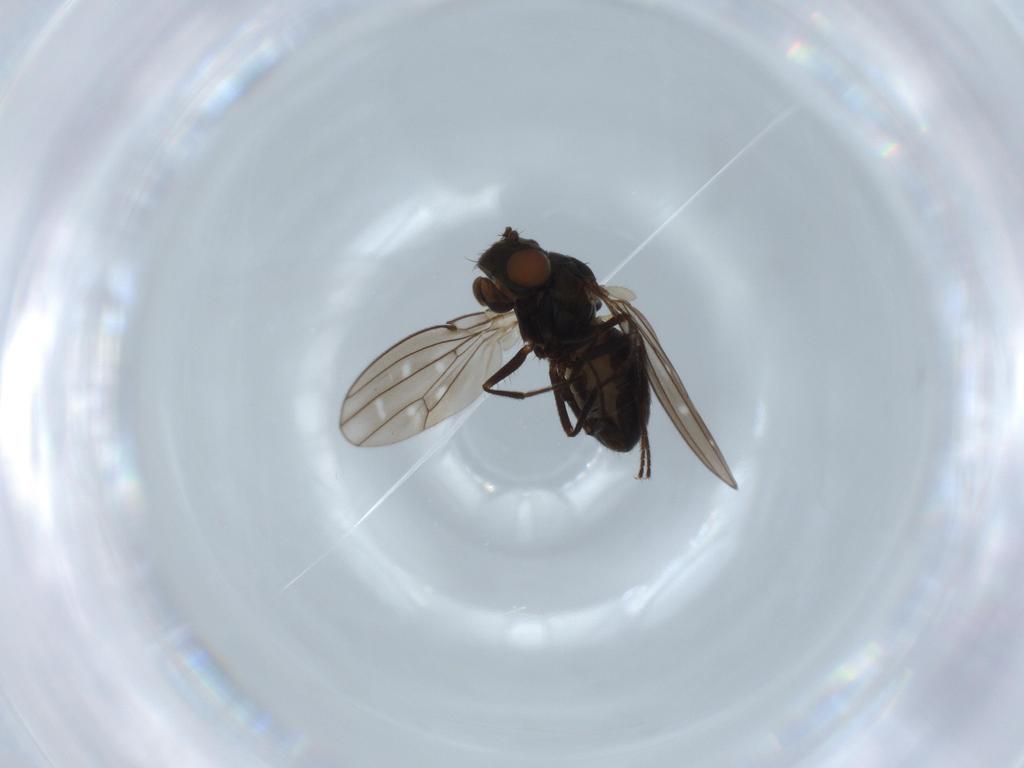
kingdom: Animalia
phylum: Arthropoda
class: Insecta
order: Diptera
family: Ephydridae
